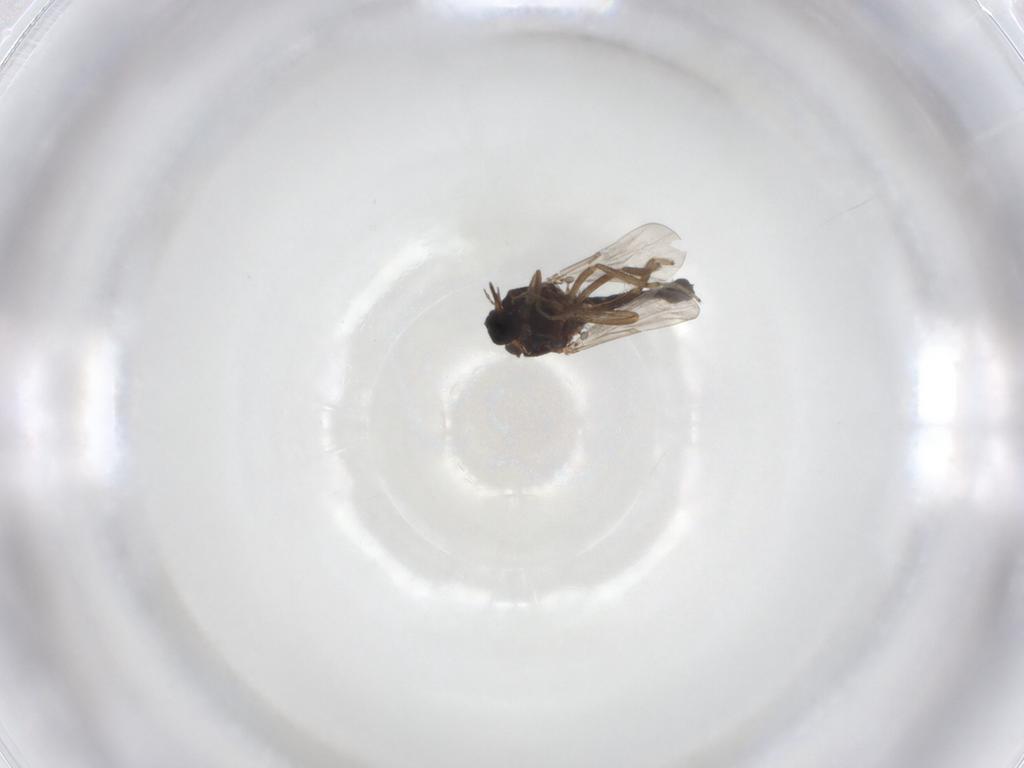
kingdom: Animalia
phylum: Arthropoda
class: Insecta
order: Diptera
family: Ceratopogonidae
